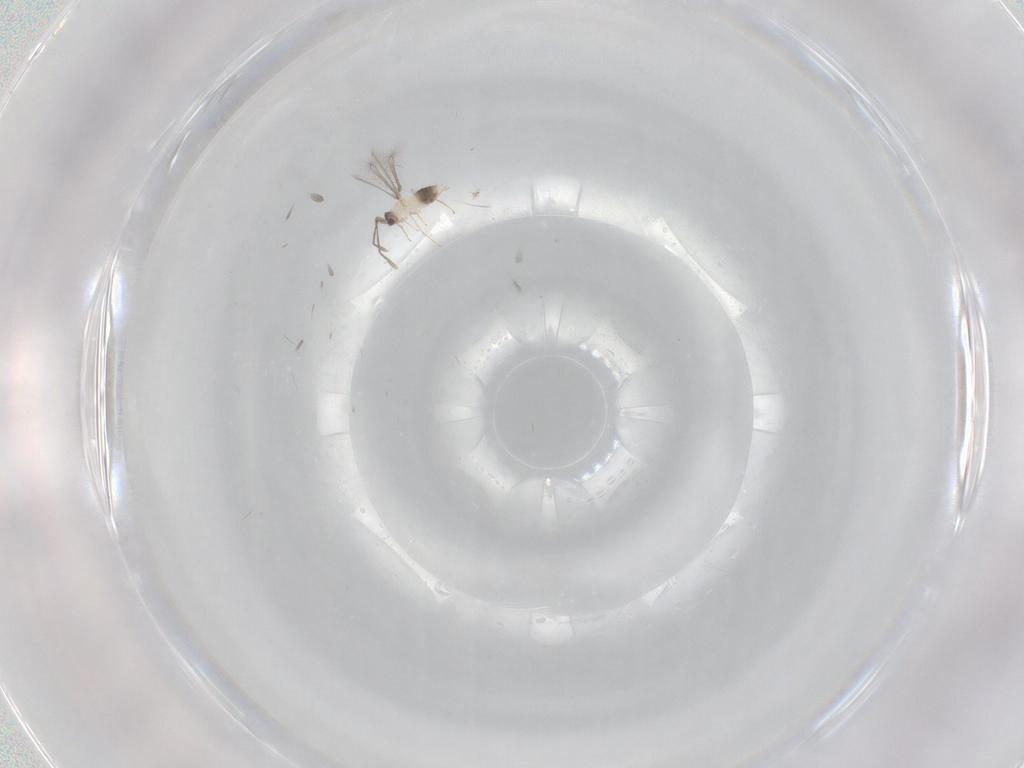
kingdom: Animalia
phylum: Arthropoda
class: Insecta
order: Hymenoptera
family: Mymaridae
